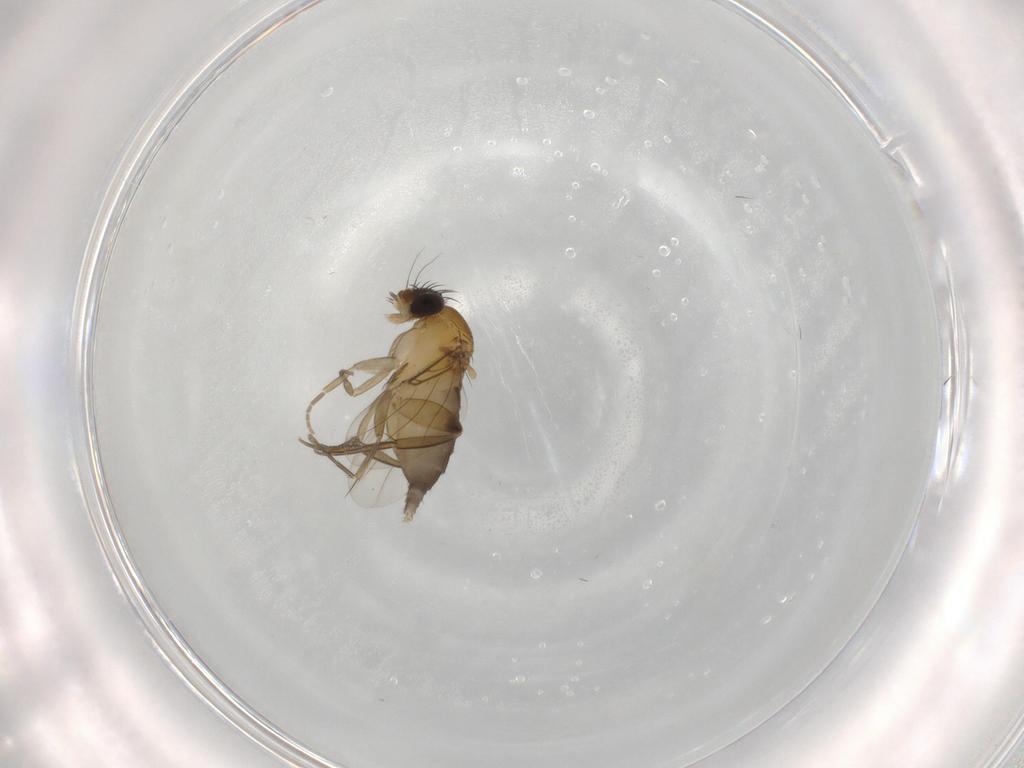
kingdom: Animalia
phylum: Arthropoda
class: Insecta
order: Diptera
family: Phoridae
